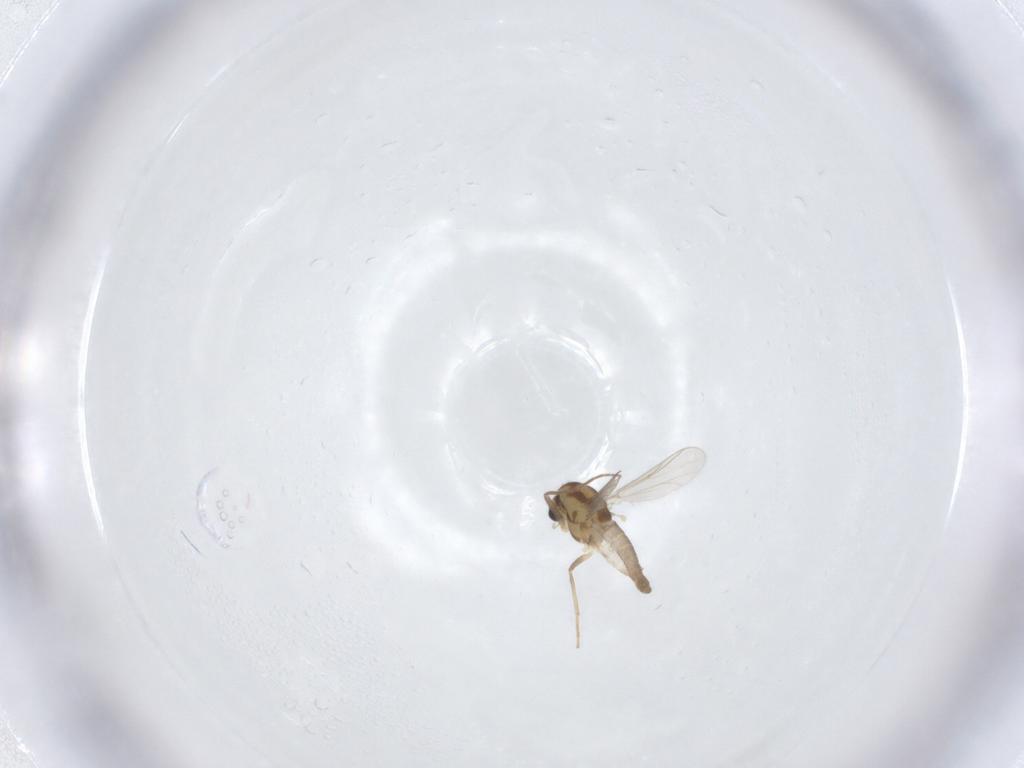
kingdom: Animalia
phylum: Arthropoda
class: Insecta
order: Diptera
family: Chironomidae
